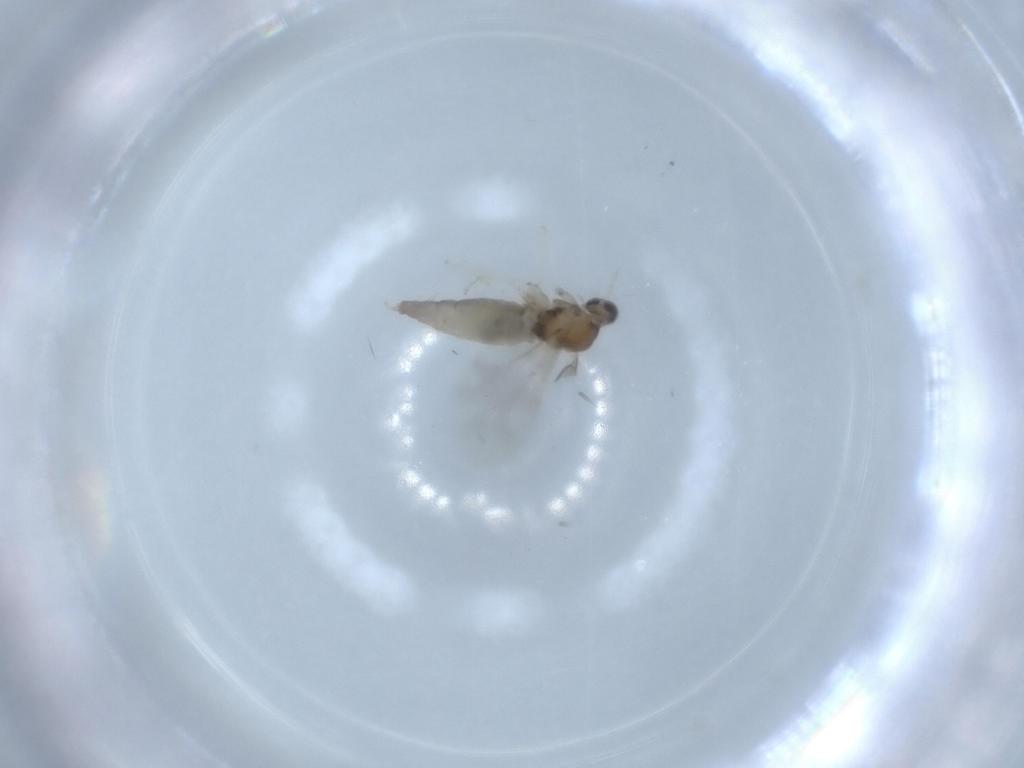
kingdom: Animalia
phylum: Arthropoda
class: Insecta
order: Diptera
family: Cecidomyiidae
